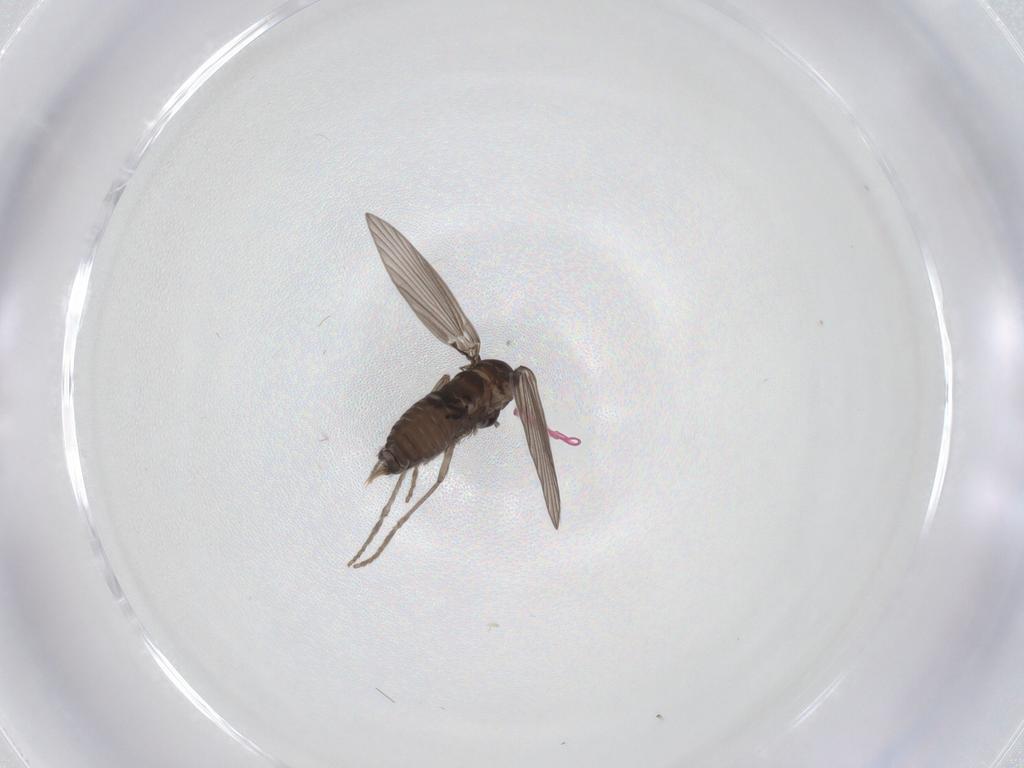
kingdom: Animalia
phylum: Arthropoda
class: Insecta
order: Diptera
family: Psychodidae
